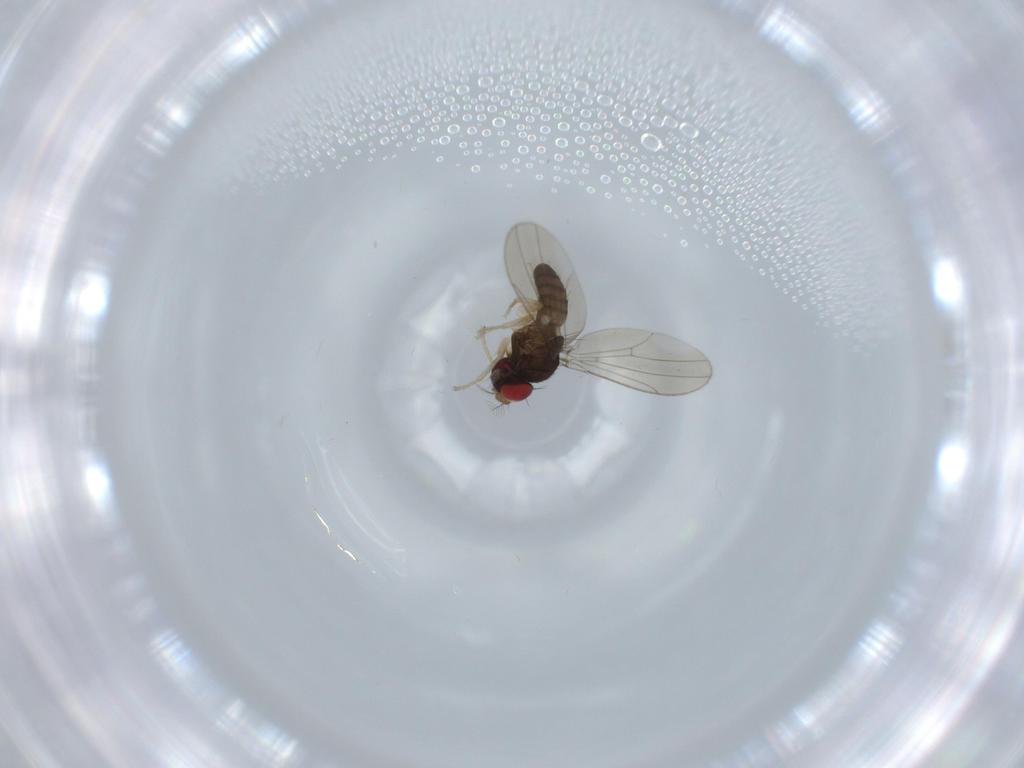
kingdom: Animalia
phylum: Arthropoda
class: Insecta
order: Diptera
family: Drosophilidae
